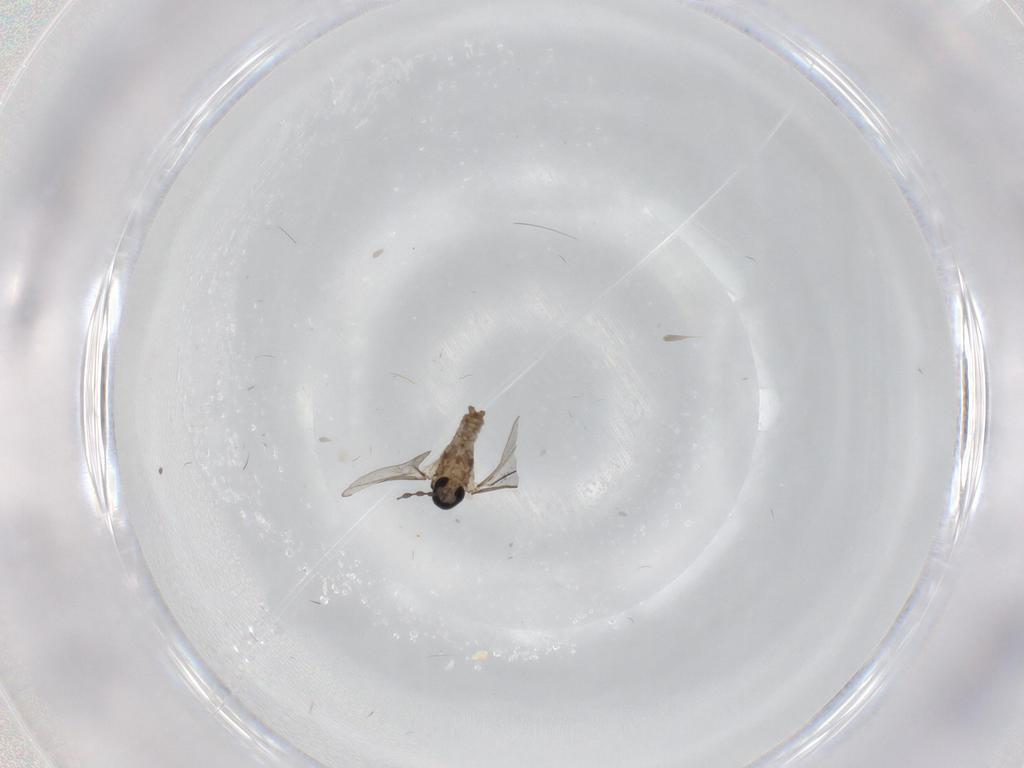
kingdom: Animalia
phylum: Arthropoda
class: Insecta
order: Diptera
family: Cecidomyiidae
